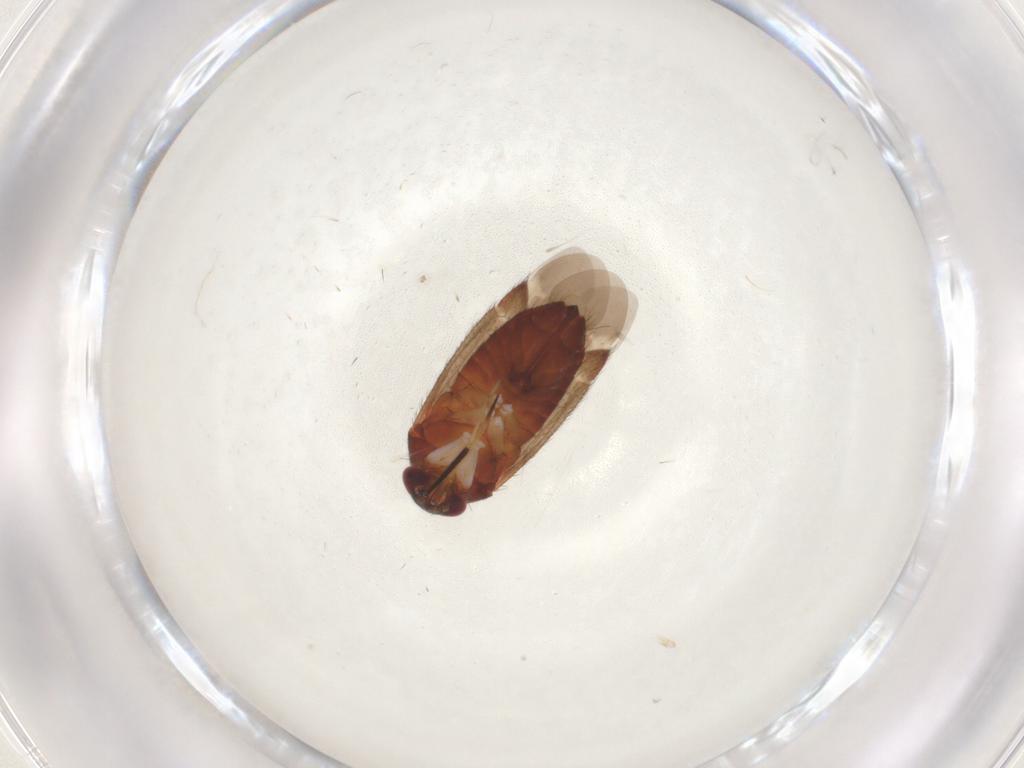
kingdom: Animalia
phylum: Arthropoda
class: Insecta
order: Hemiptera
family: Miridae
